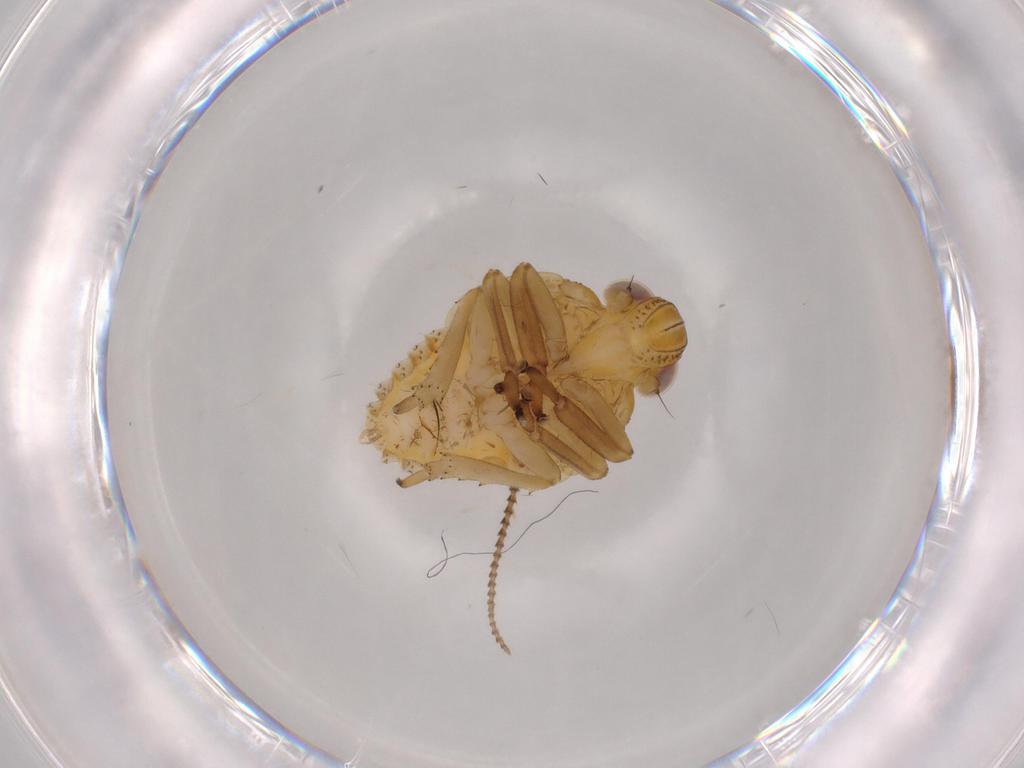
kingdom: Animalia
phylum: Arthropoda
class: Insecta
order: Hemiptera
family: Issidae
